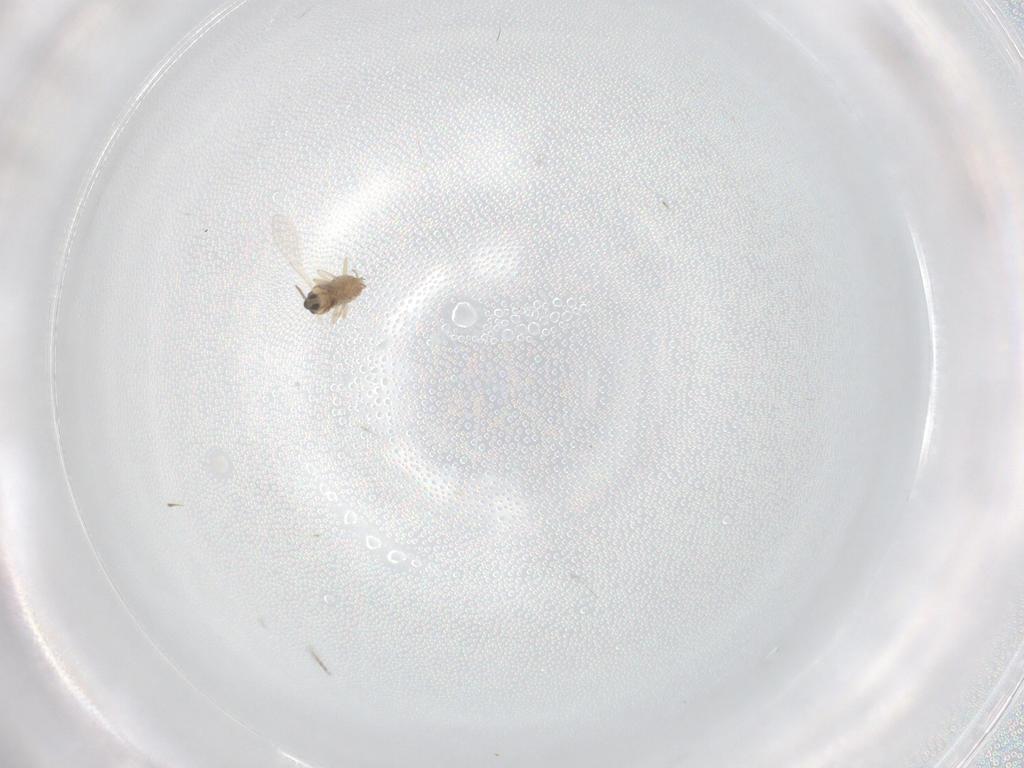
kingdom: Animalia
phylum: Arthropoda
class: Insecta
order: Diptera
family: Cecidomyiidae
